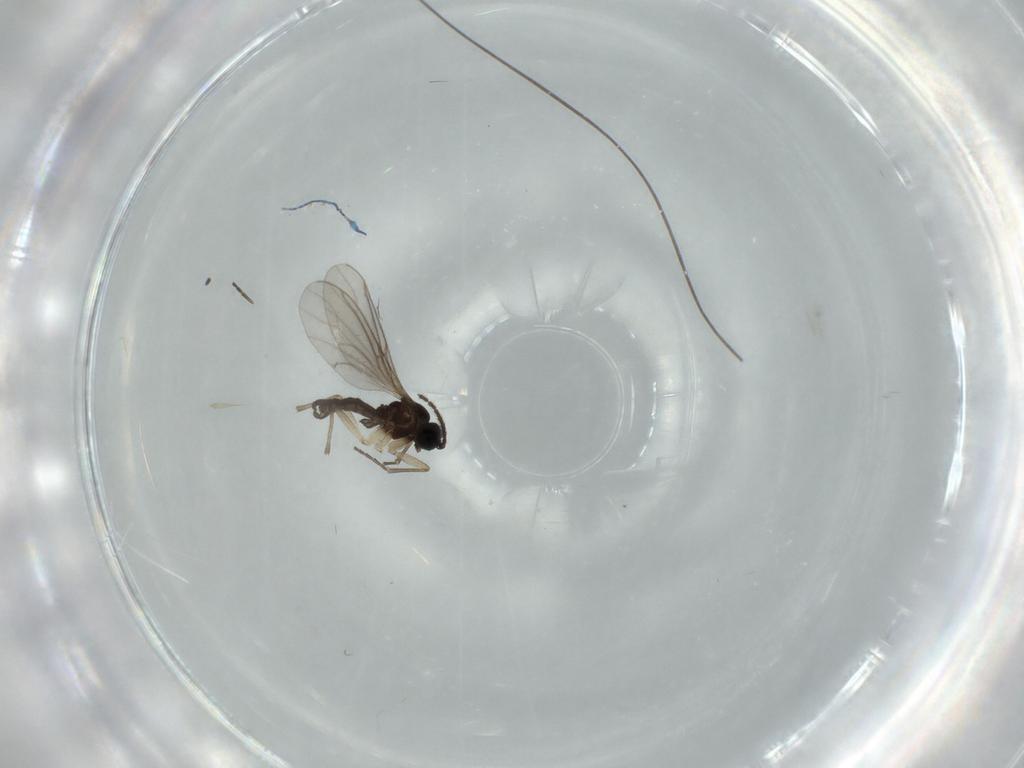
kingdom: Animalia
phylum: Arthropoda
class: Insecta
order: Diptera
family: Sciaridae
